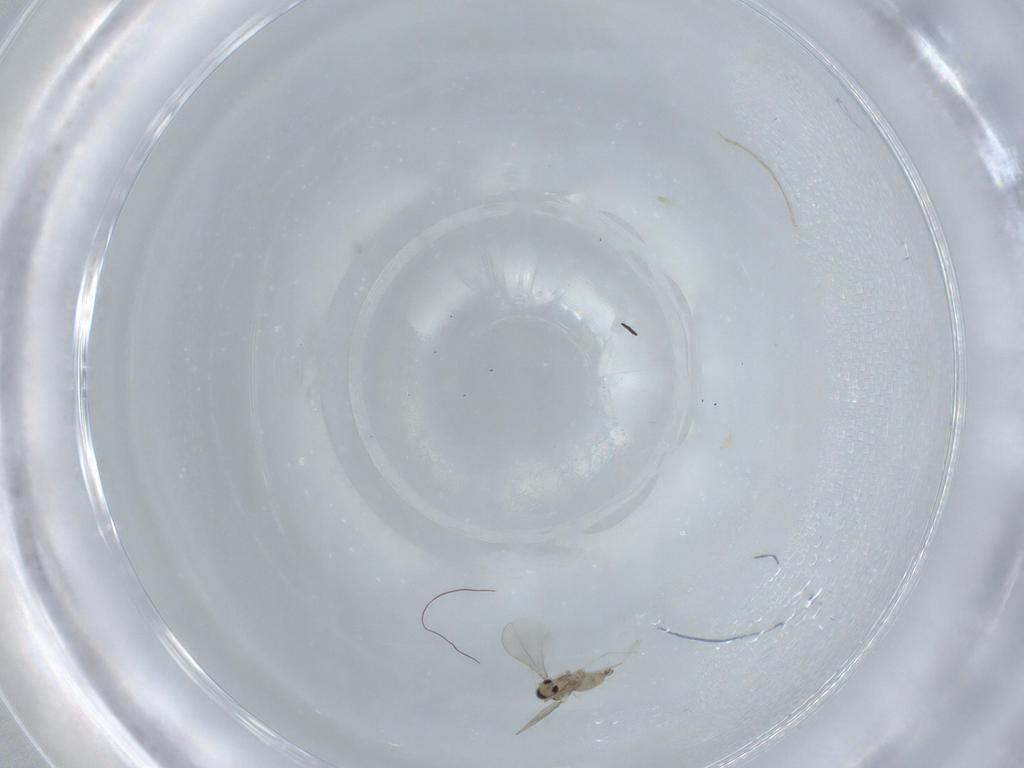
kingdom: Animalia
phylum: Arthropoda
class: Insecta
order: Diptera
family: Cecidomyiidae
